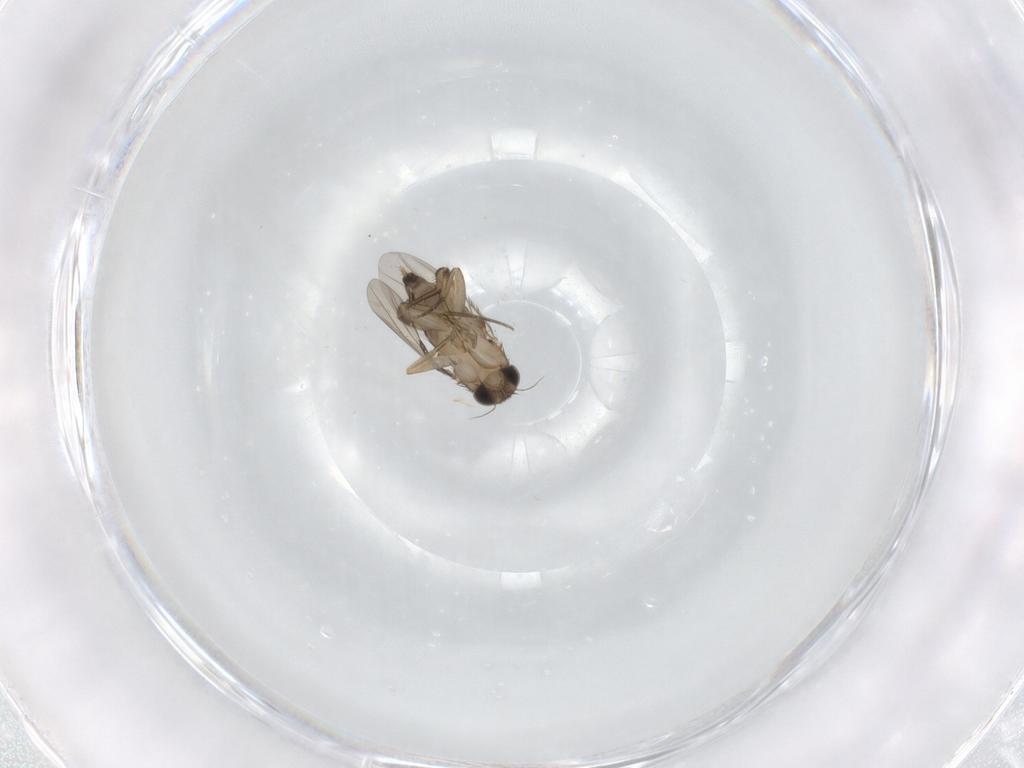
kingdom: Animalia
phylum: Arthropoda
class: Insecta
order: Diptera
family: Phoridae
